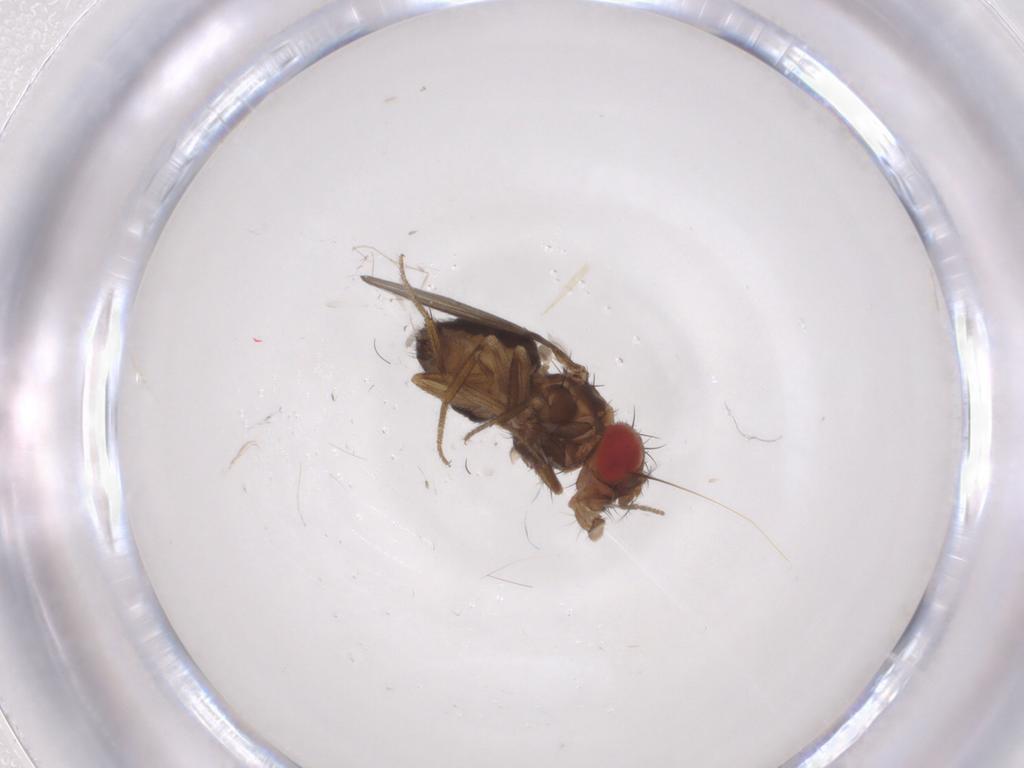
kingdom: Animalia
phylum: Arthropoda
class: Insecta
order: Diptera
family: Drosophilidae
